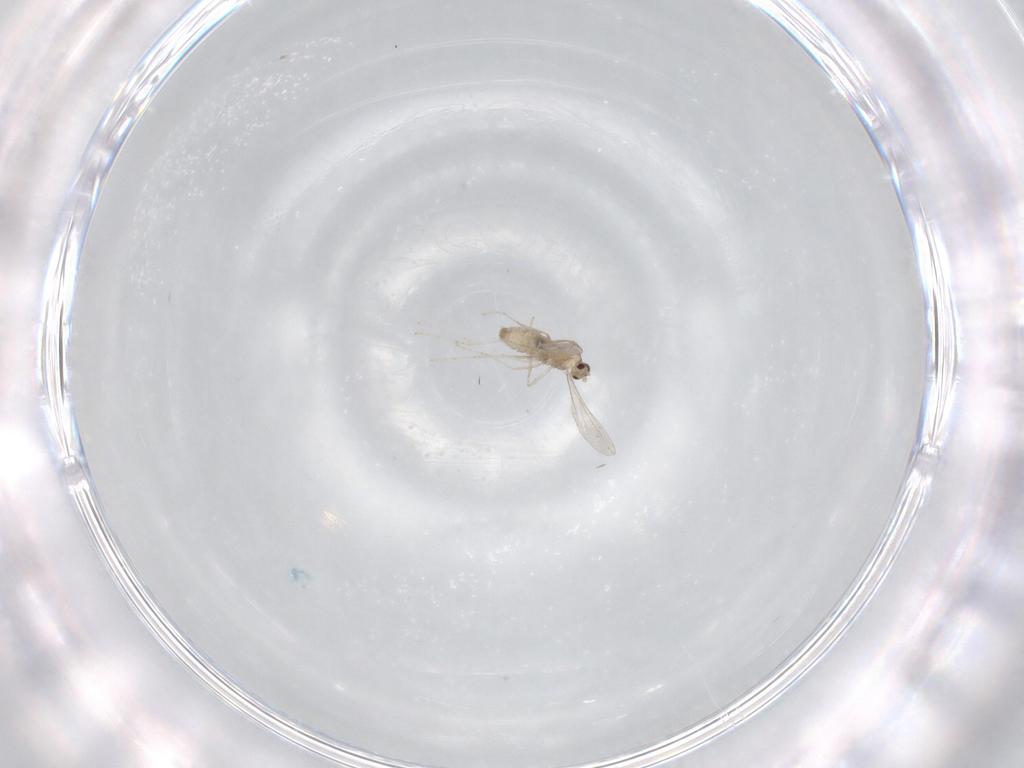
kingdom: Animalia
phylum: Arthropoda
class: Insecta
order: Diptera
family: Cecidomyiidae
